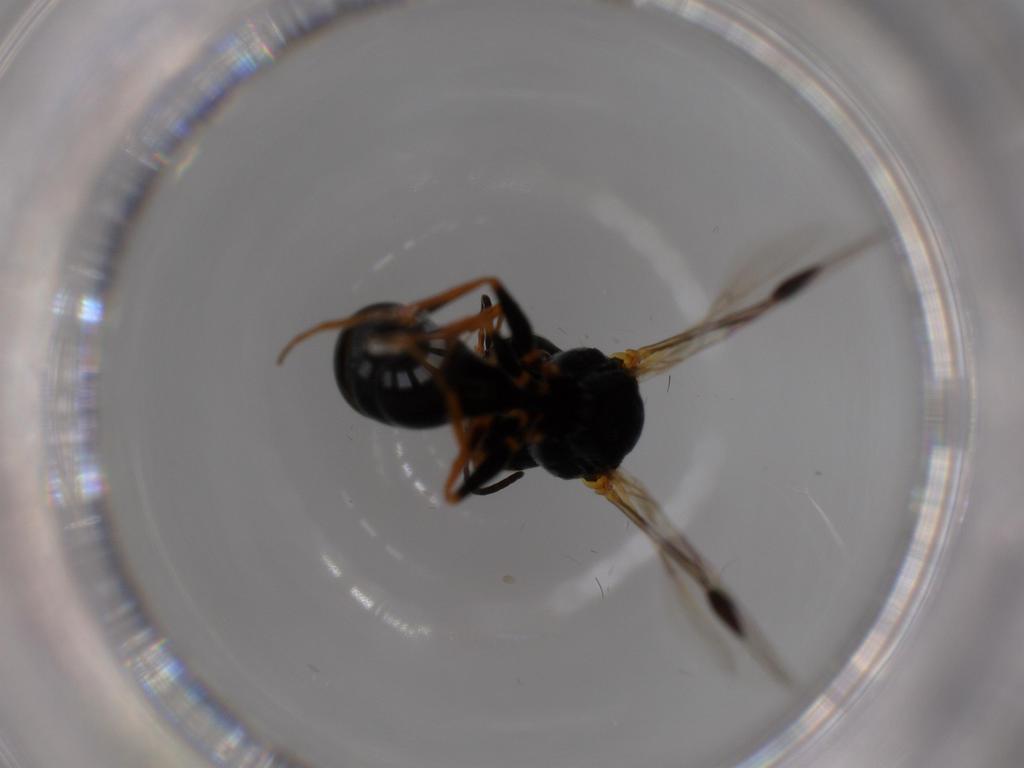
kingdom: Animalia
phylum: Arthropoda
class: Insecta
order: Hymenoptera
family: Crabronidae
